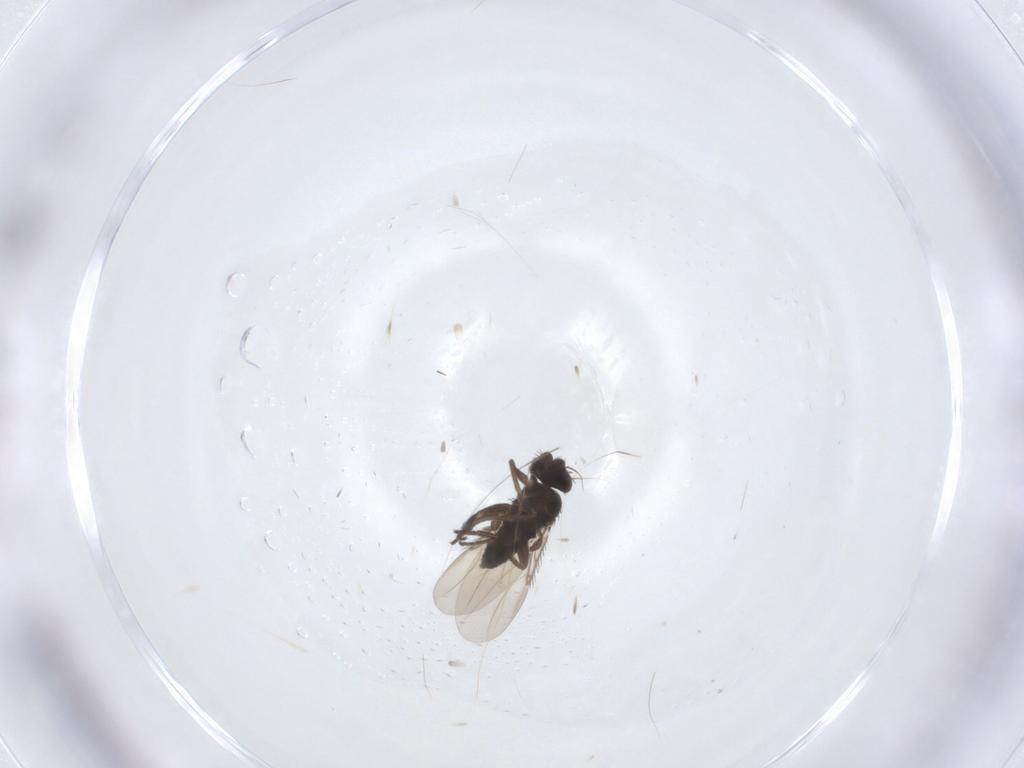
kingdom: Animalia
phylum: Arthropoda
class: Insecta
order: Diptera
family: Phoridae
